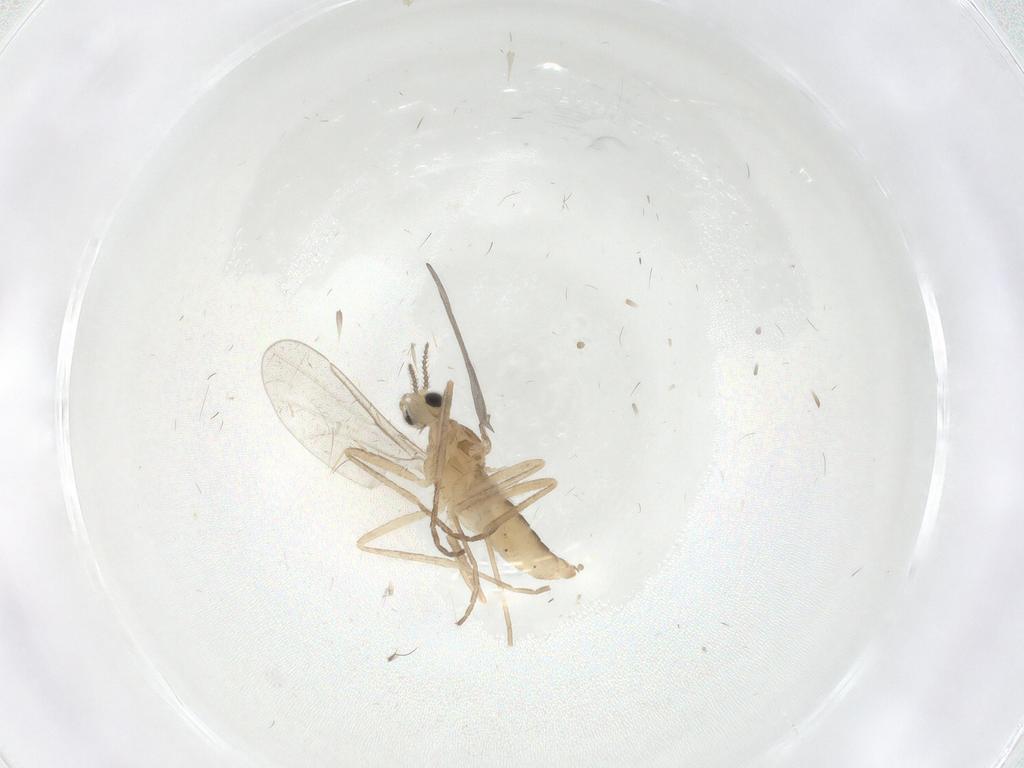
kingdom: Animalia
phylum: Arthropoda
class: Insecta
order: Diptera
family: Cecidomyiidae
